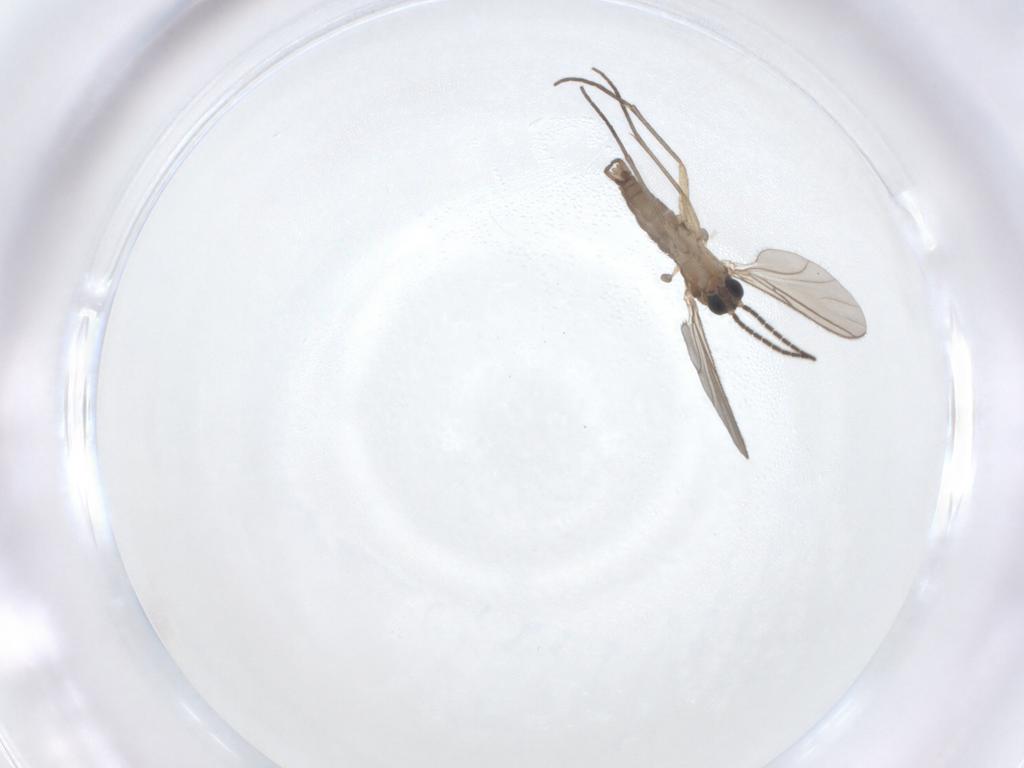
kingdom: Animalia
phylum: Arthropoda
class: Insecta
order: Diptera
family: Sciaridae
